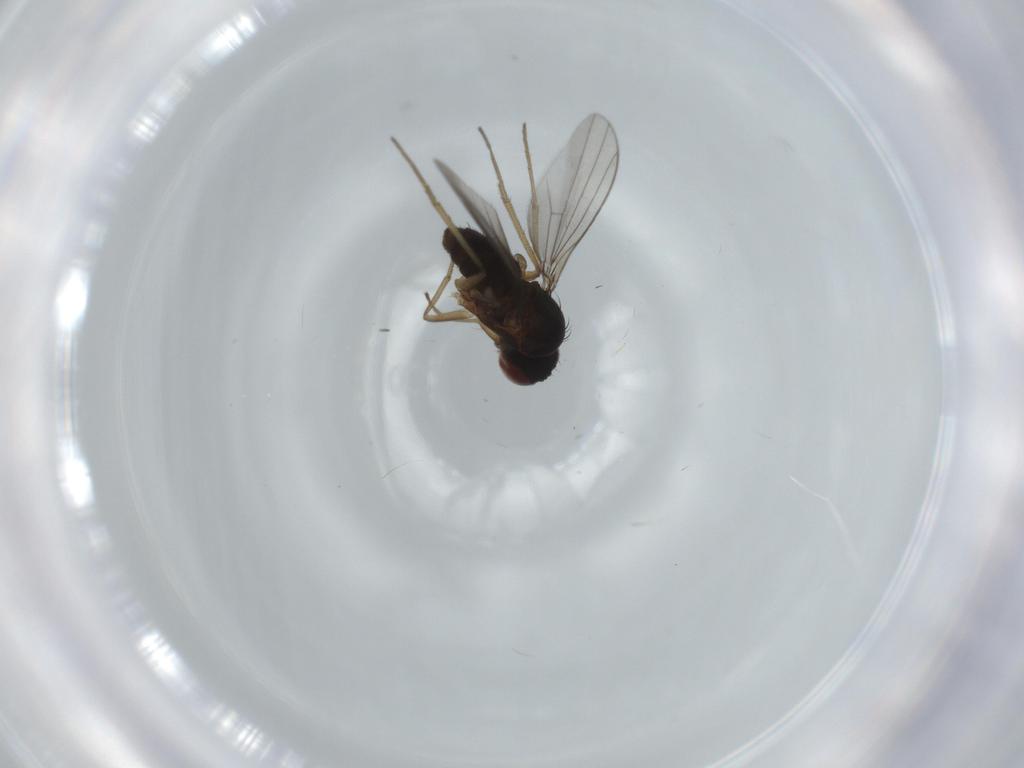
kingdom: Animalia
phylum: Arthropoda
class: Insecta
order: Diptera
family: Dolichopodidae
